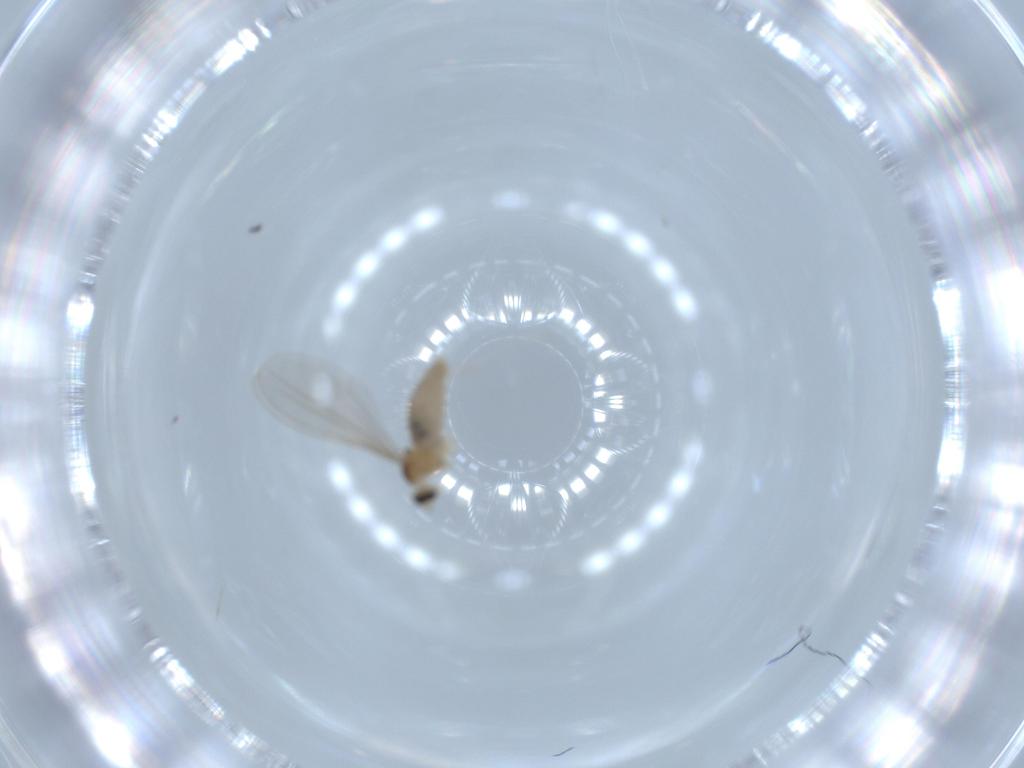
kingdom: Animalia
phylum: Arthropoda
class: Insecta
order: Diptera
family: Cecidomyiidae
